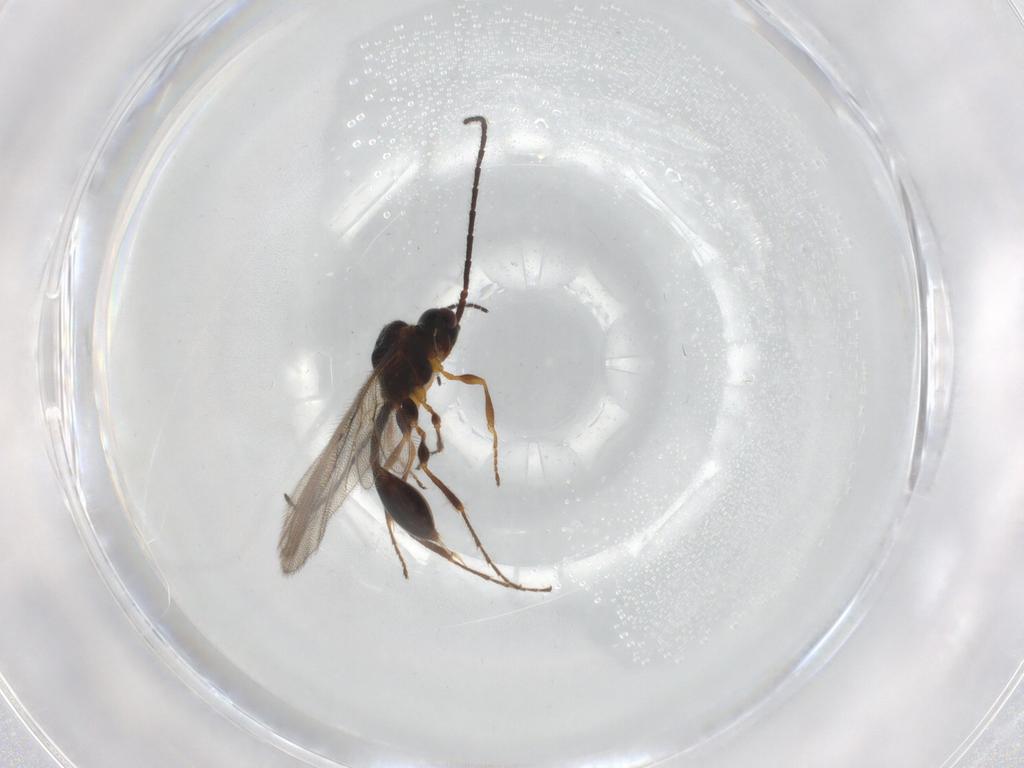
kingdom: Animalia
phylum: Arthropoda
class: Insecta
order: Hymenoptera
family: Diapriidae
